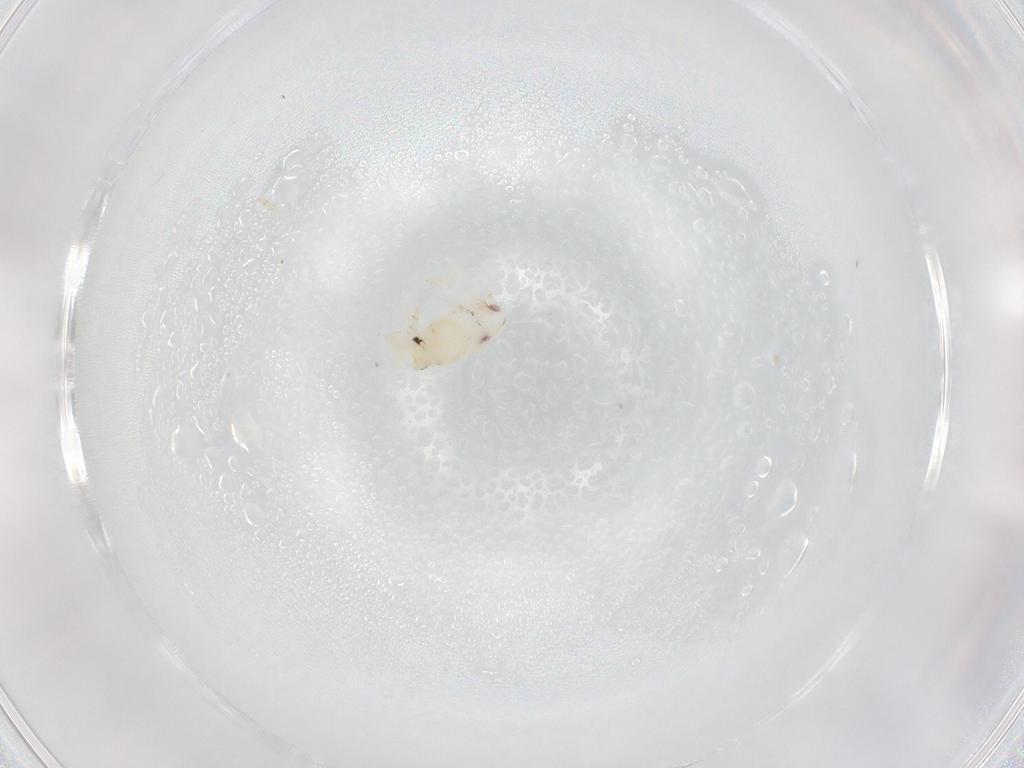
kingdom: Animalia
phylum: Arthropoda
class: Insecta
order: Hemiptera
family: Flatidae
